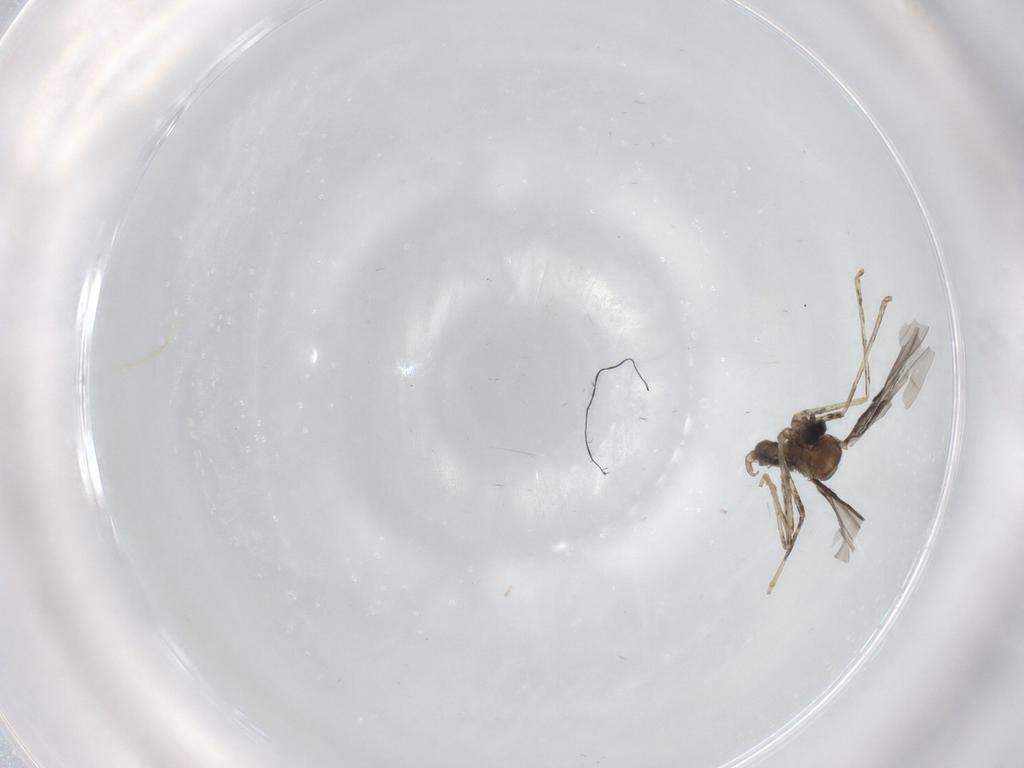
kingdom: Animalia
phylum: Arthropoda
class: Insecta
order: Diptera
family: Cecidomyiidae
